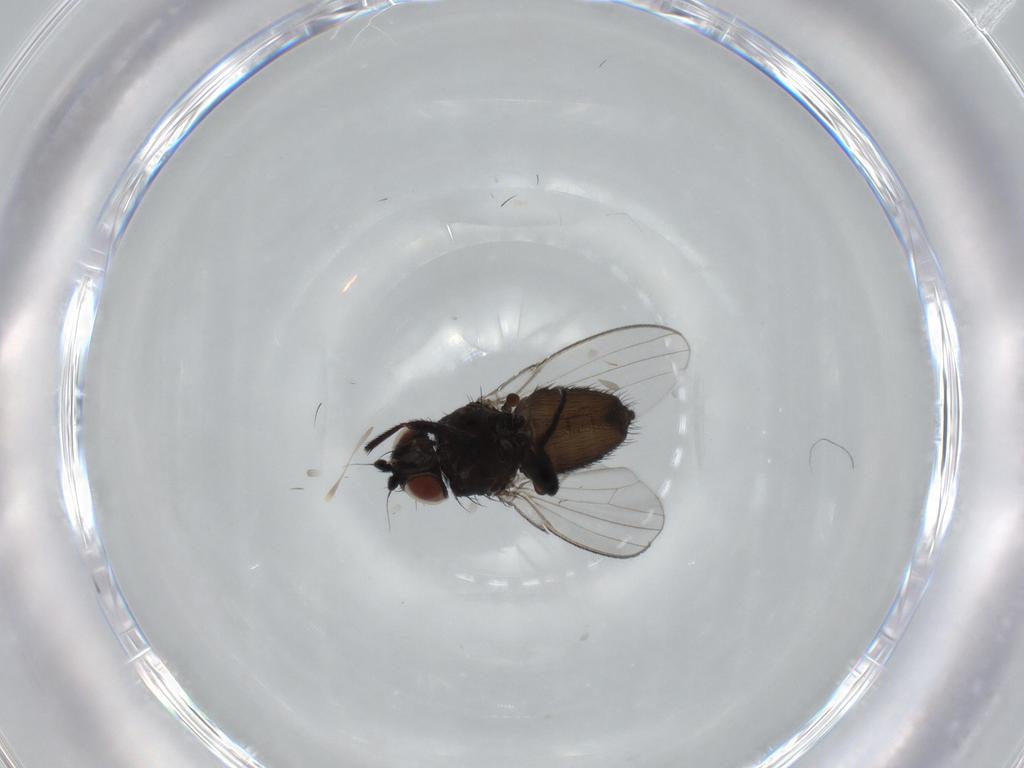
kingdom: Animalia
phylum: Arthropoda
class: Insecta
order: Diptera
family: Milichiidae
